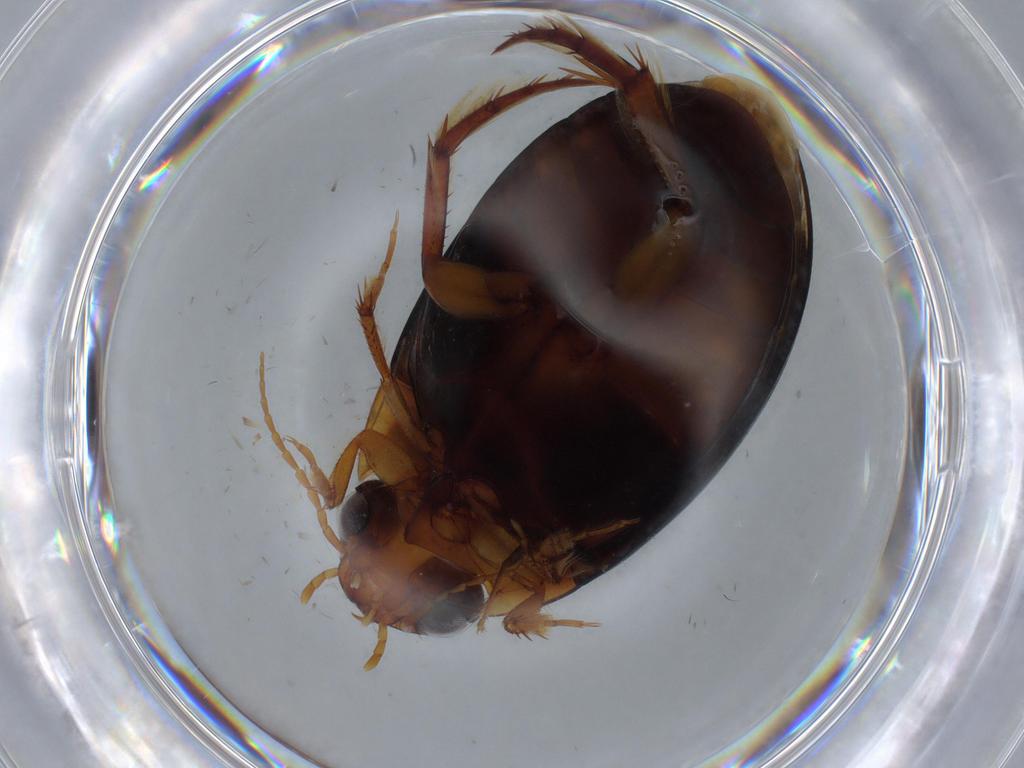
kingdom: Animalia
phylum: Arthropoda
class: Insecta
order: Coleoptera
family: Dytiscidae
